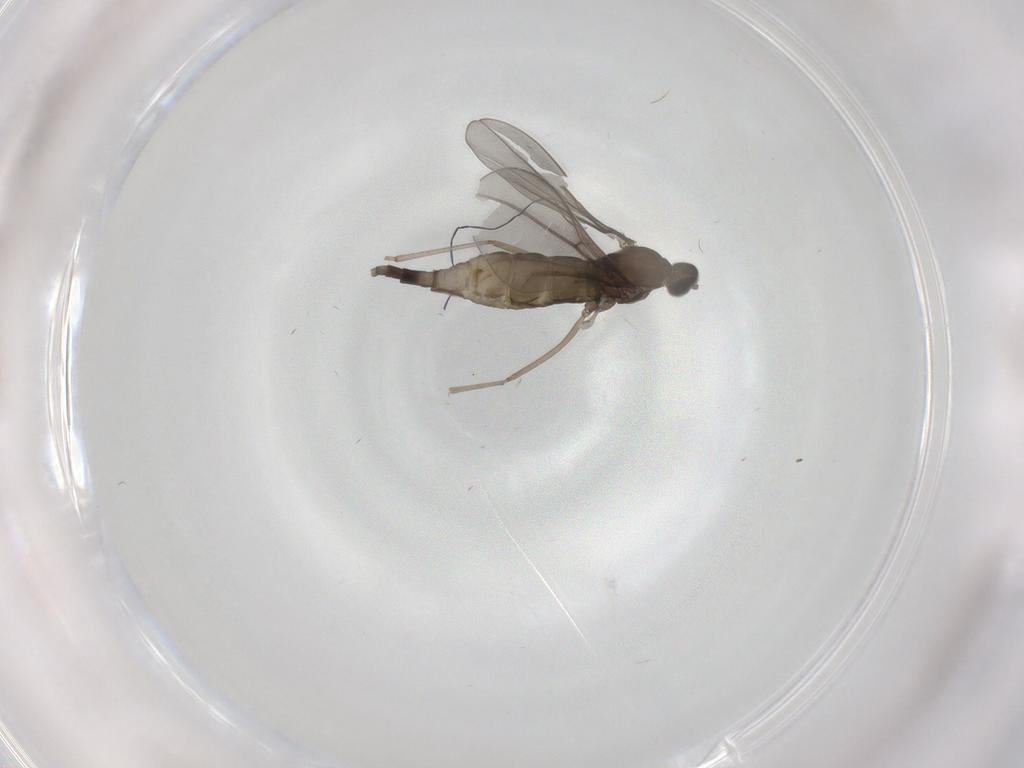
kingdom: Animalia
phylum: Arthropoda
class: Insecta
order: Diptera
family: Cecidomyiidae
